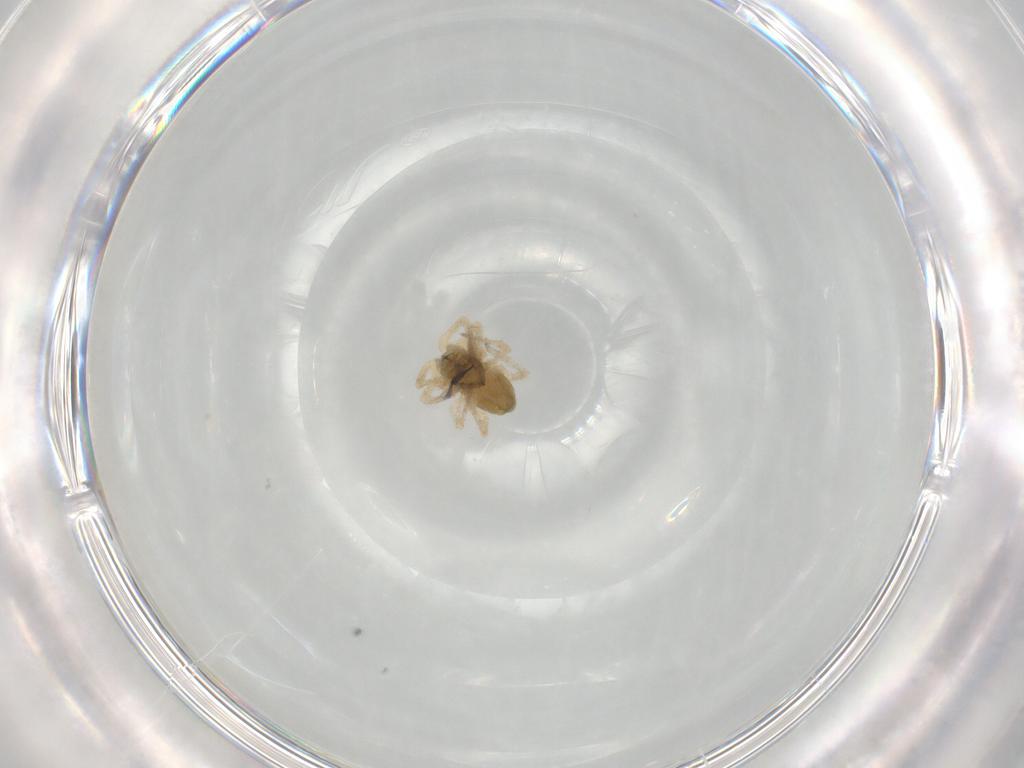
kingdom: Animalia
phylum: Arthropoda
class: Arachnida
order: Araneae
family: Linyphiidae
